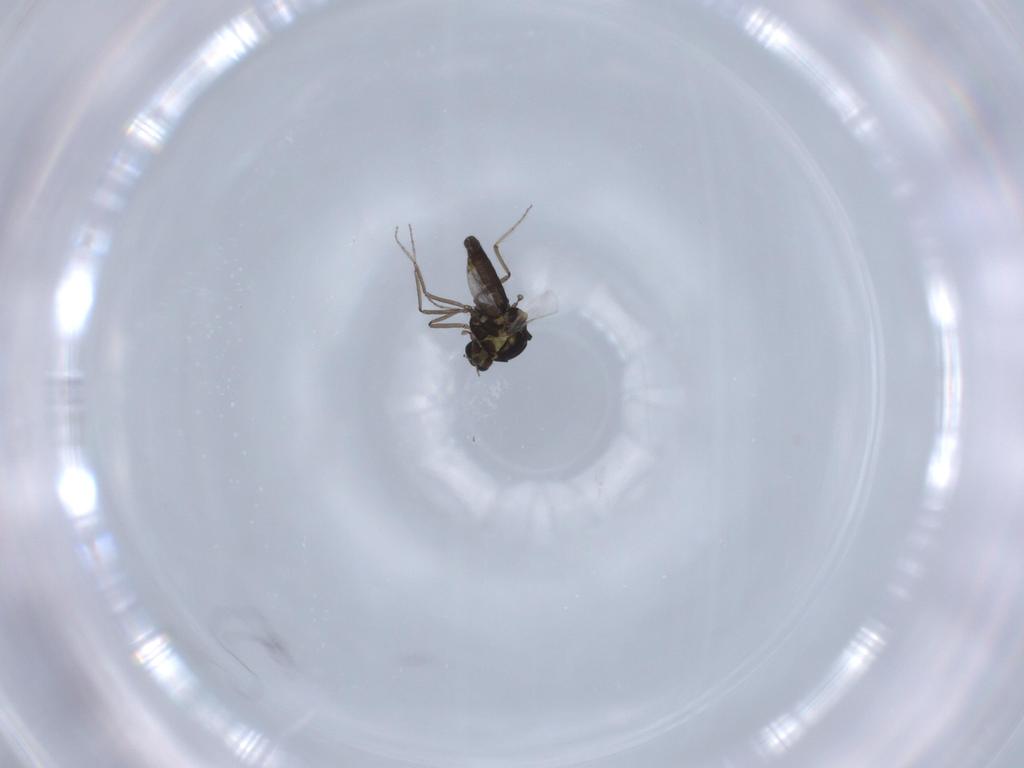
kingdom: Animalia
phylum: Arthropoda
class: Insecta
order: Diptera
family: Ceratopogonidae
